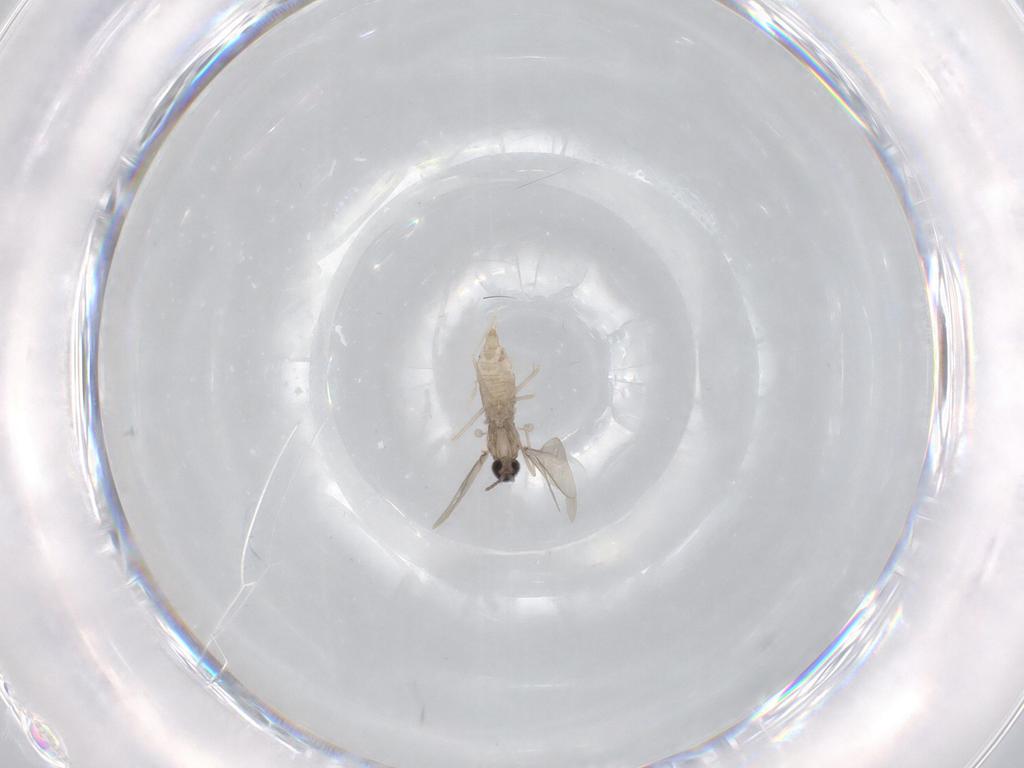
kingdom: Animalia
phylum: Arthropoda
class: Insecta
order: Diptera
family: Cecidomyiidae
